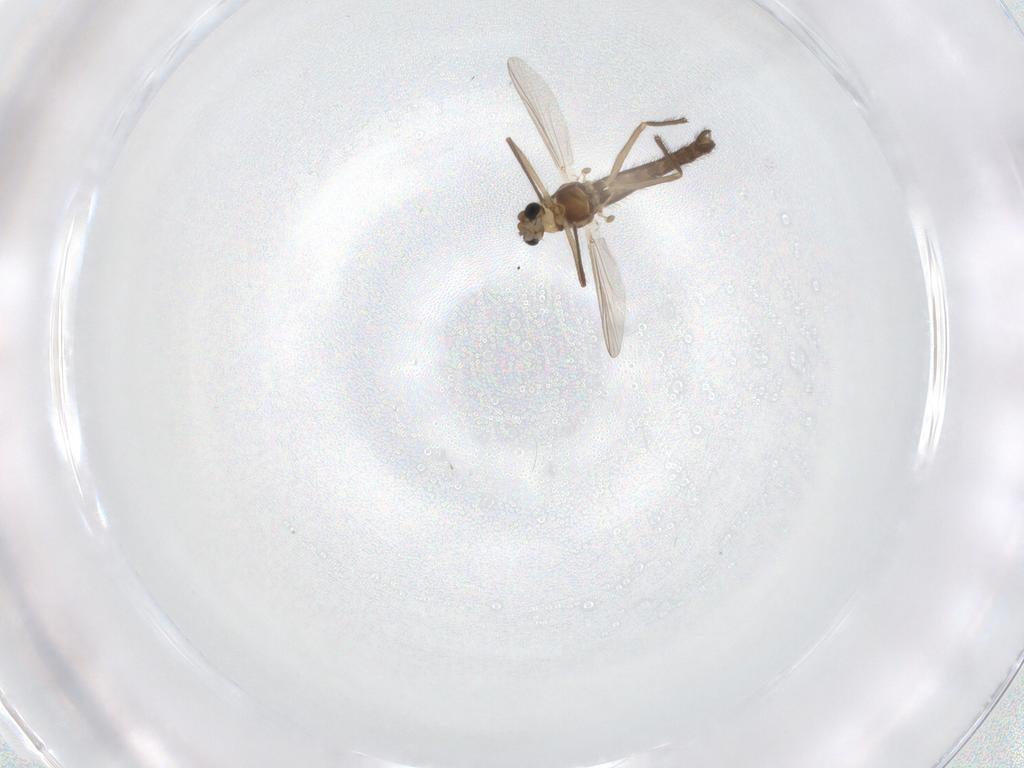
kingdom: Animalia
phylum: Arthropoda
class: Insecta
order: Diptera
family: Chironomidae
